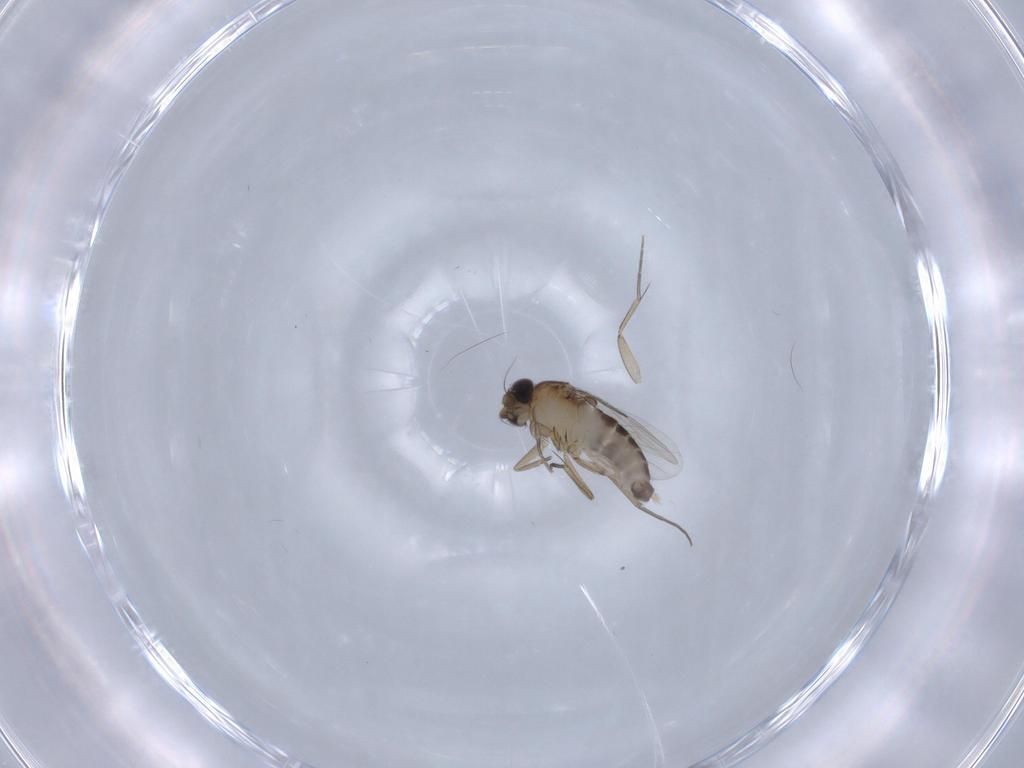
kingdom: Animalia
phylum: Arthropoda
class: Insecta
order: Diptera
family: Phoridae
